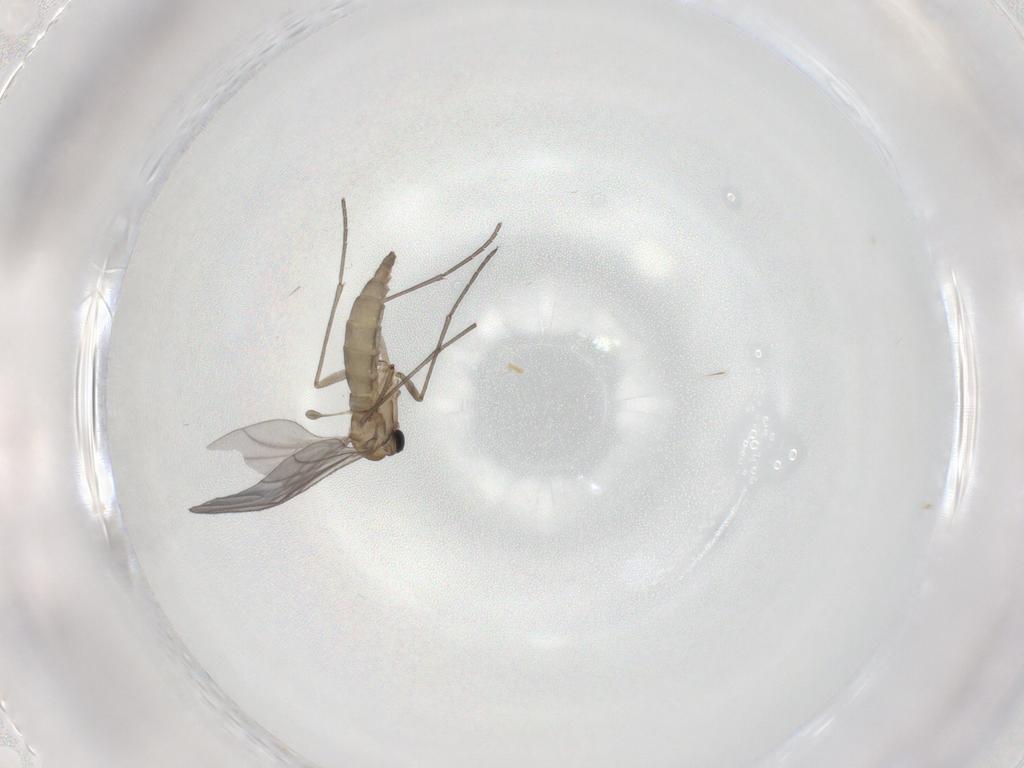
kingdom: Animalia
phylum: Arthropoda
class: Insecta
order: Diptera
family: Sciaridae
